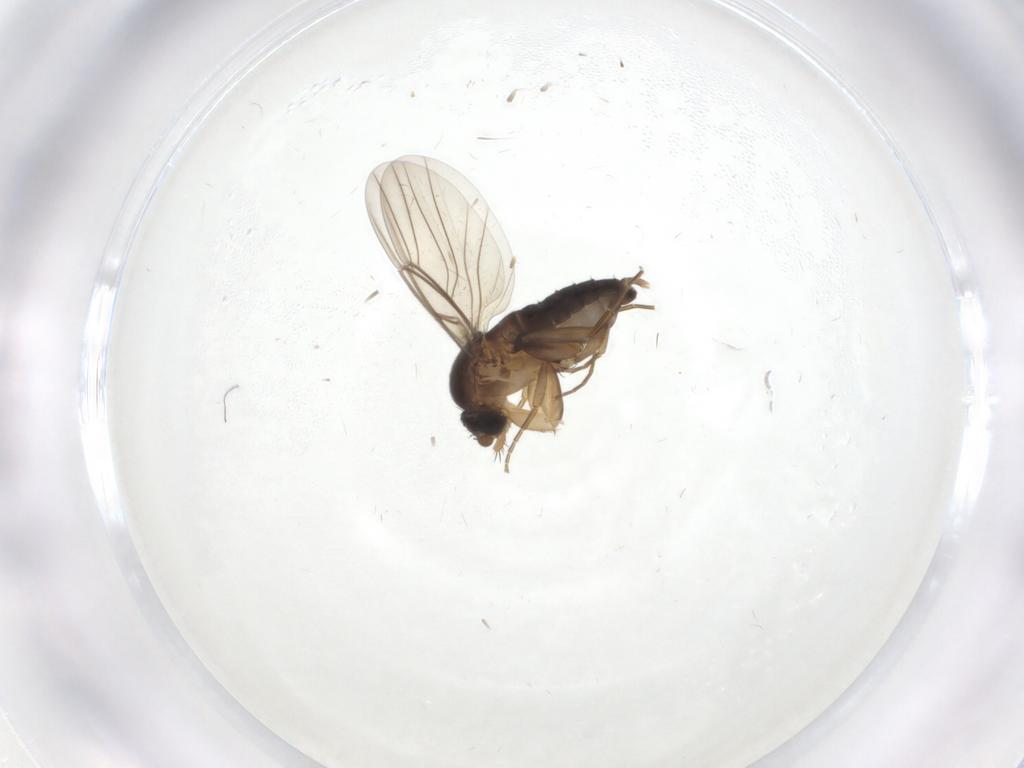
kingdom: Animalia
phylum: Arthropoda
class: Insecta
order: Diptera
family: Phoridae
